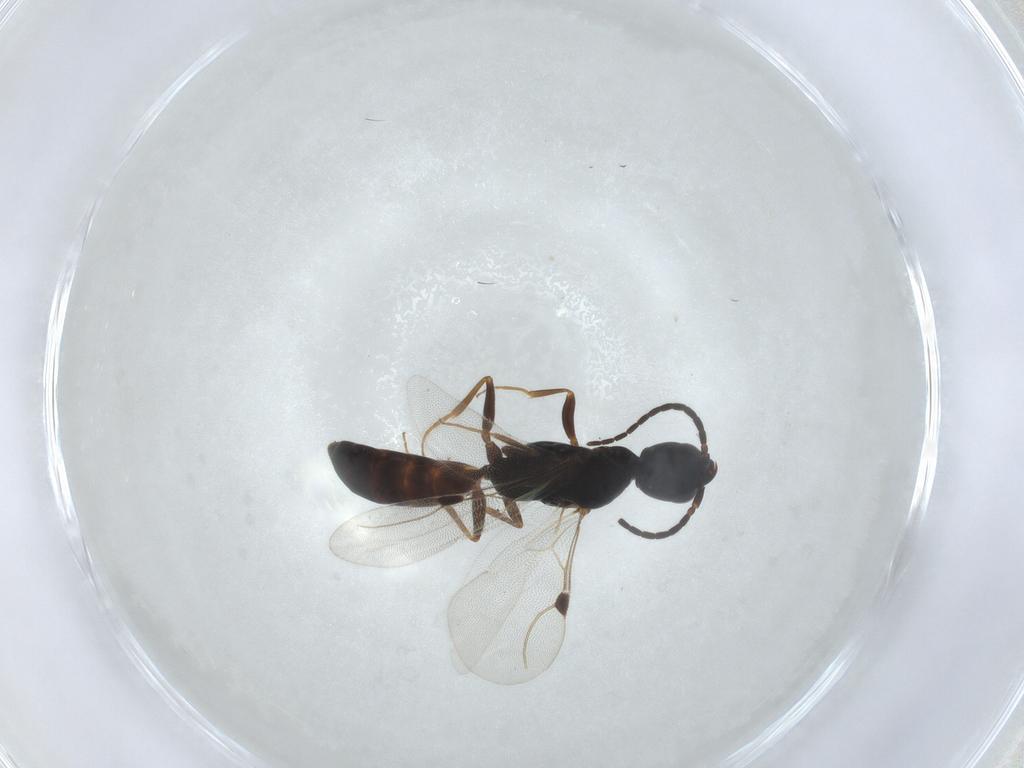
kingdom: Animalia
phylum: Arthropoda
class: Insecta
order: Hymenoptera
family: Bethylidae
